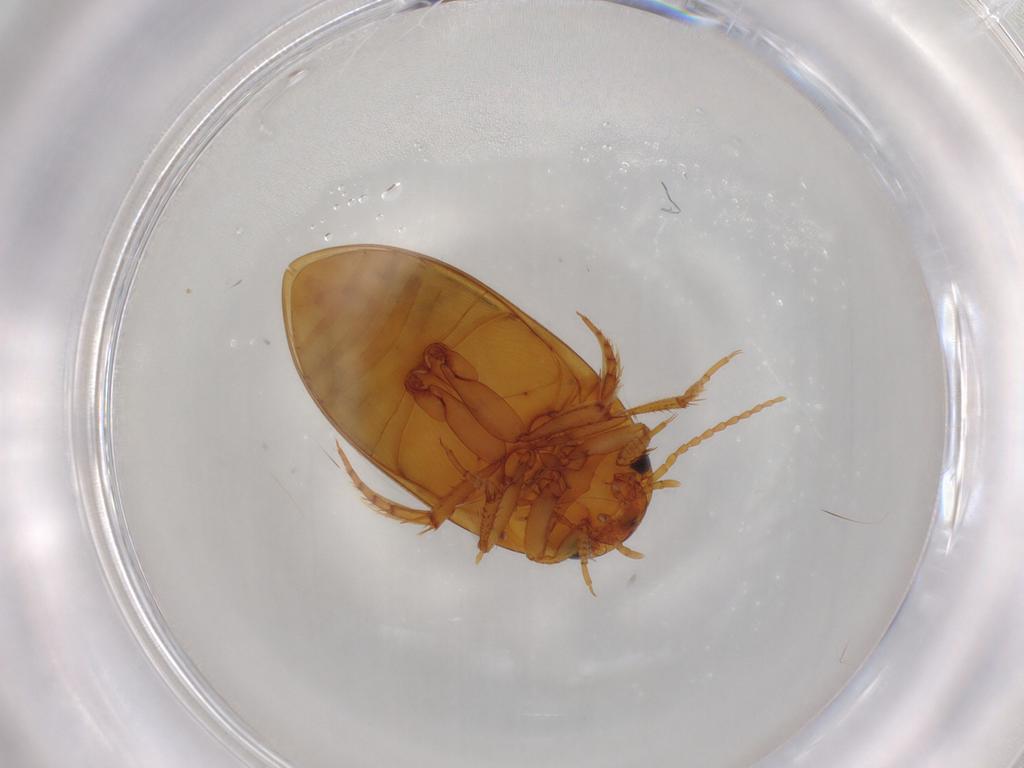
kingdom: Animalia
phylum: Arthropoda
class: Insecta
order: Coleoptera
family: Dytiscidae
